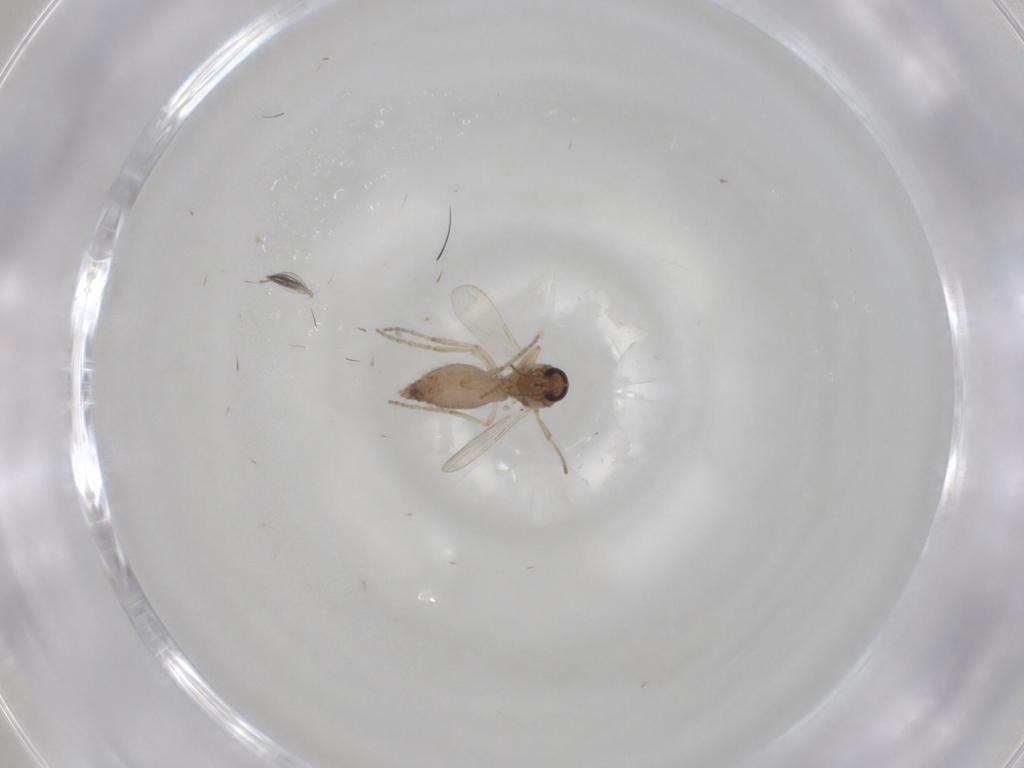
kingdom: Animalia
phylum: Arthropoda
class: Insecta
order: Diptera
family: Ceratopogonidae
